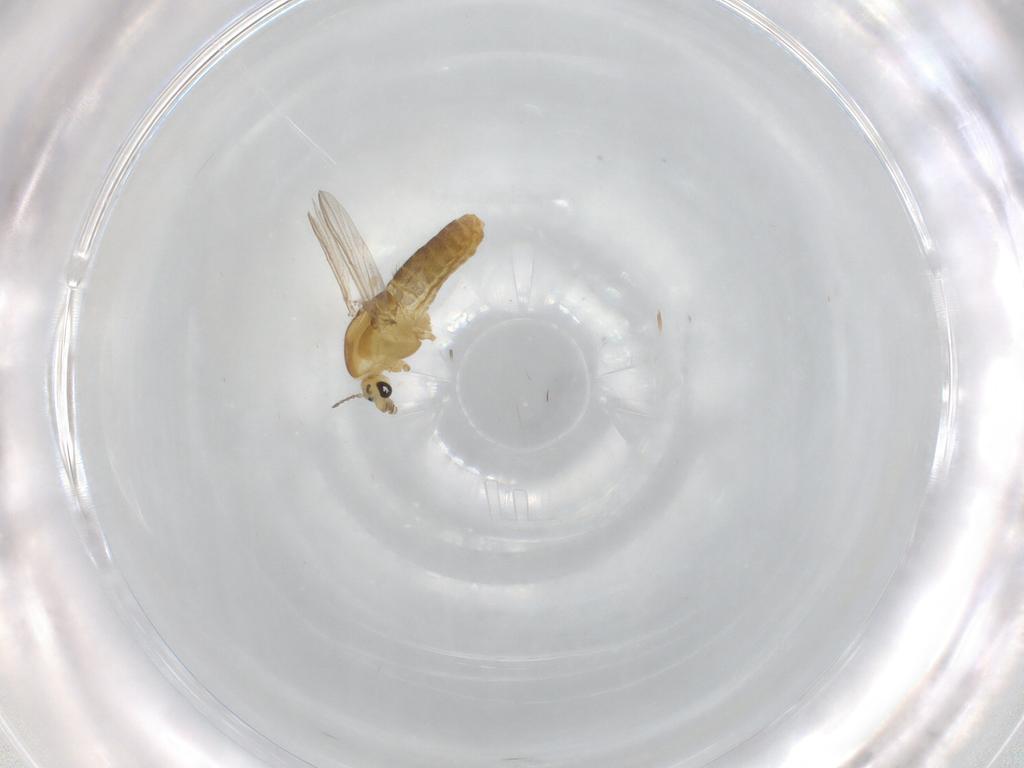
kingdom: Animalia
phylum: Arthropoda
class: Insecta
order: Diptera
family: Chironomidae
